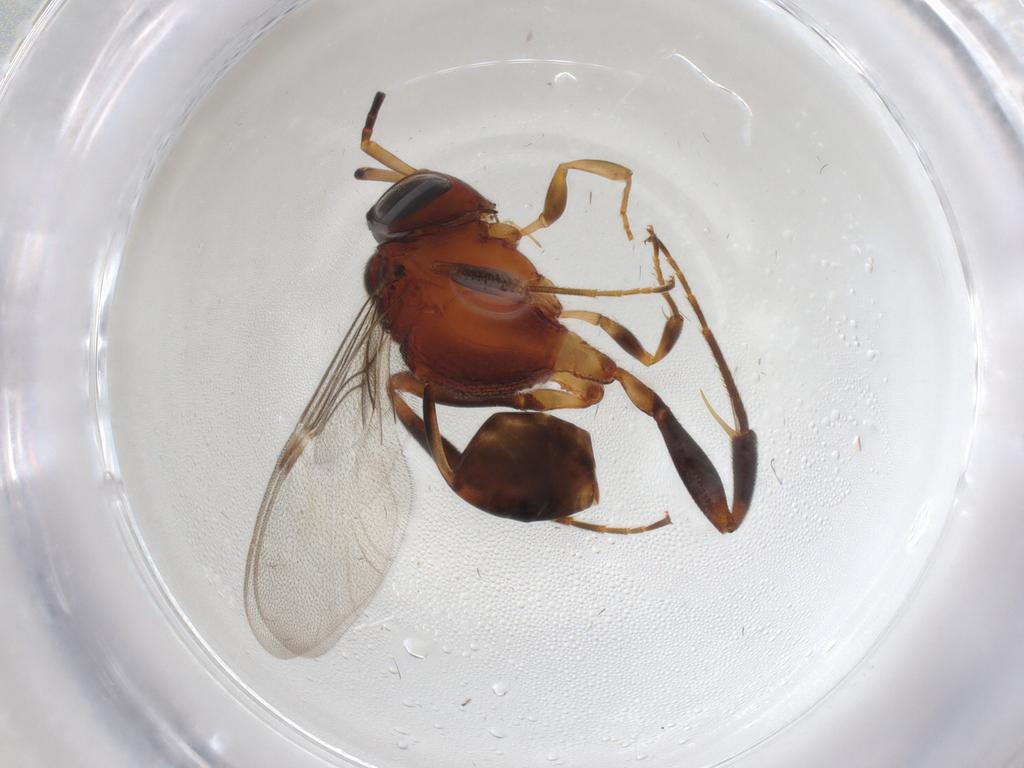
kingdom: Animalia
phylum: Arthropoda
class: Insecta
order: Hymenoptera
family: Evaniidae
